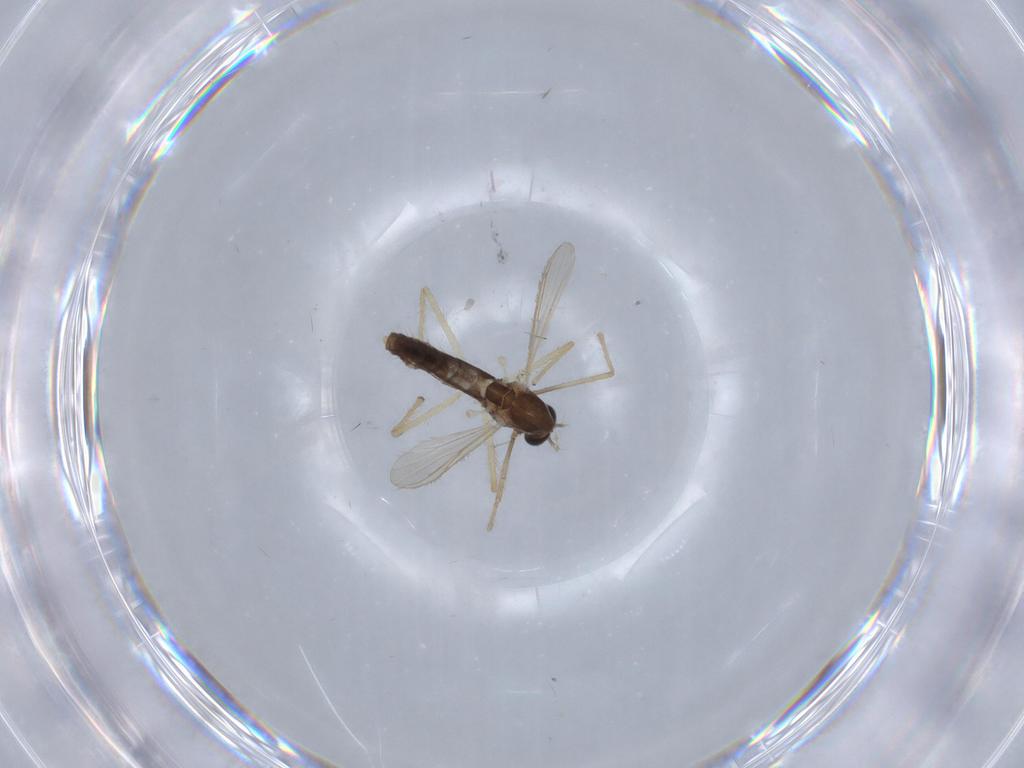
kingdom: Animalia
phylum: Arthropoda
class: Insecta
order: Diptera
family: Chironomidae
